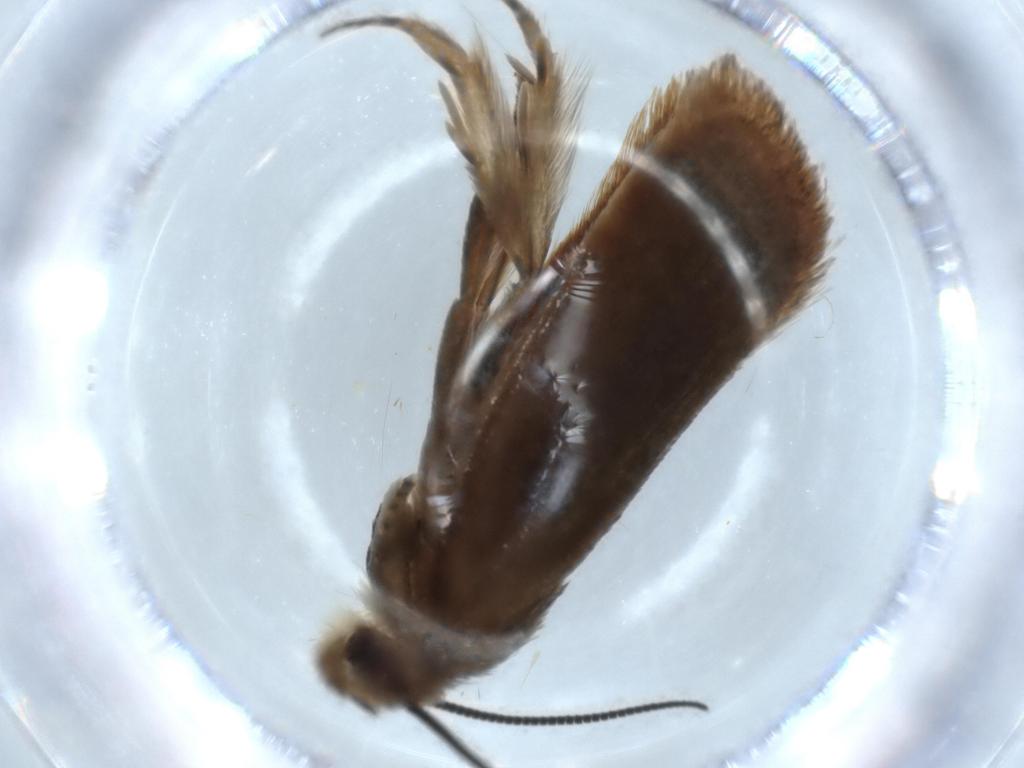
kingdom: Animalia
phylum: Arthropoda
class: Insecta
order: Lepidoptera
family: Tineidae
